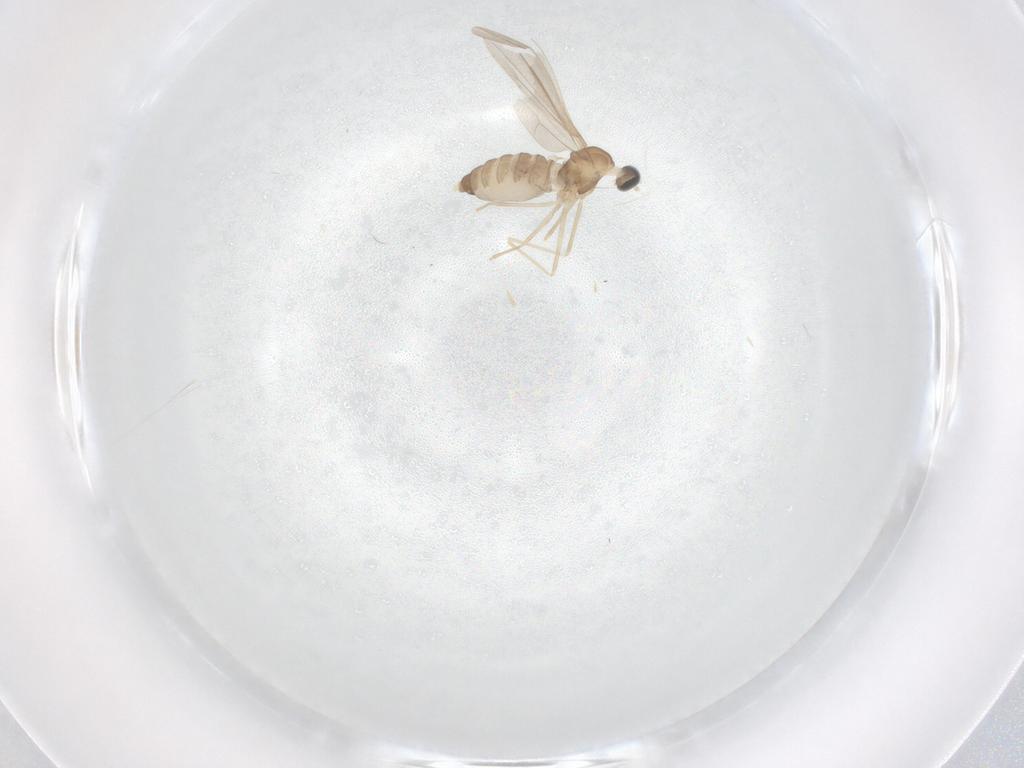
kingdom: Animalia
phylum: Arthropoda
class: Insecta
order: Diptera
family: Cecidomyiidae
